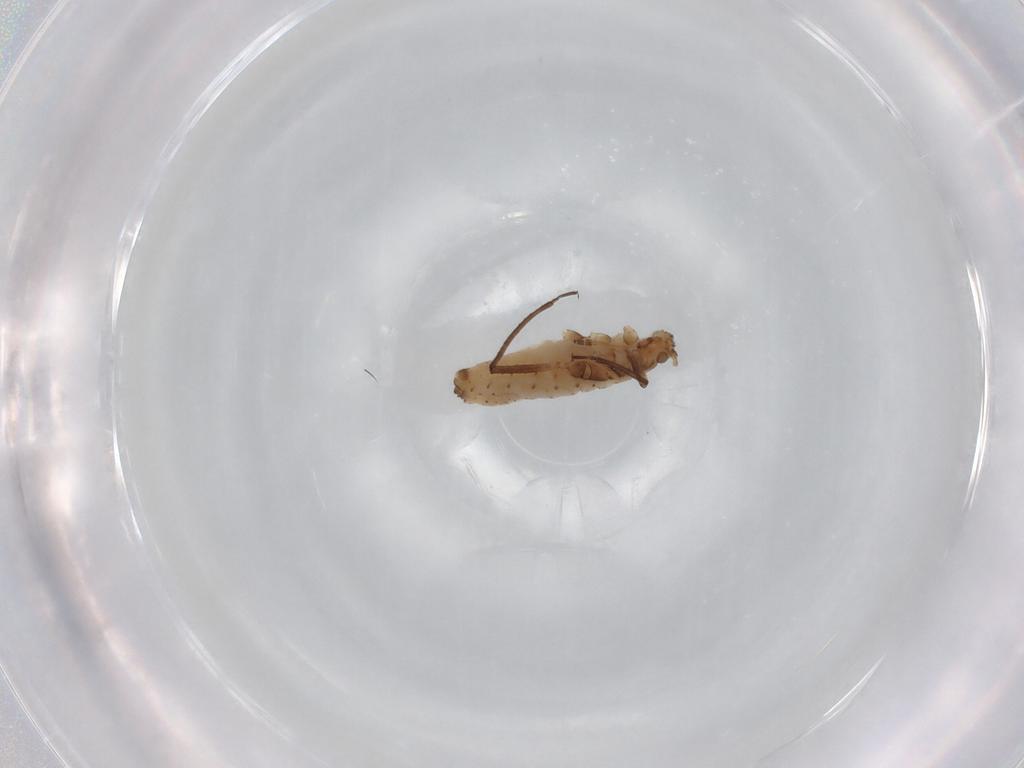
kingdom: Animalia
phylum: Arthropoda
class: Insecta
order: Hemiptera
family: Aphididae
